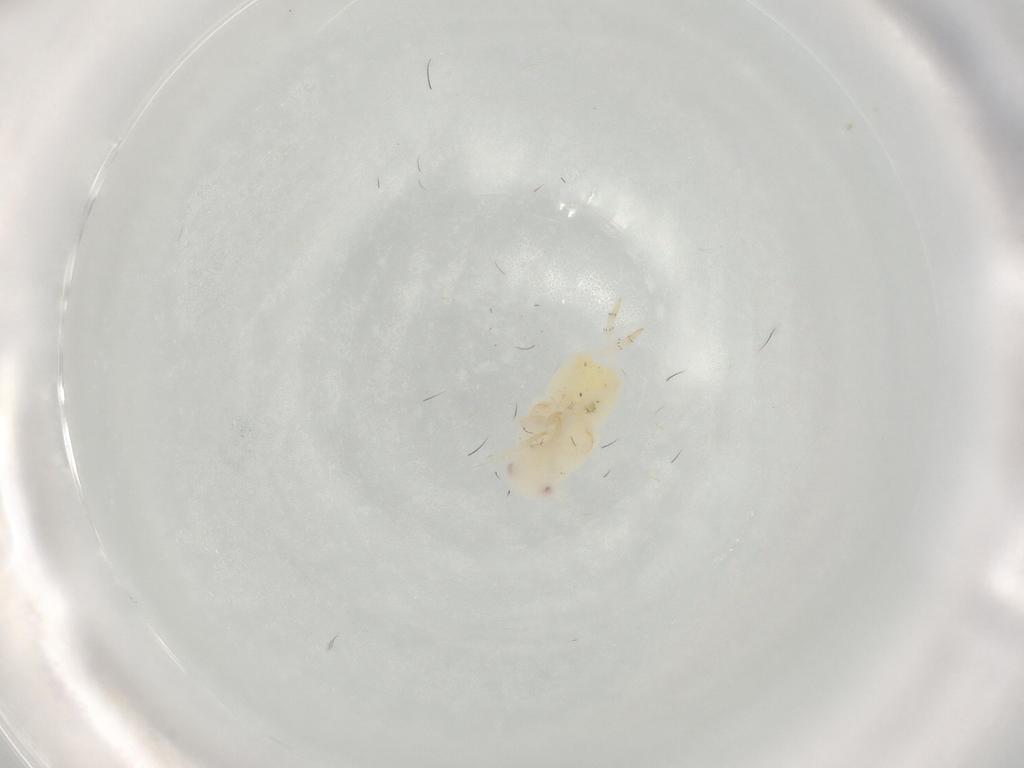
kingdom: Animalia
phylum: Arthropoda
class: Insecta
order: Hemiptera
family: Flatidae
